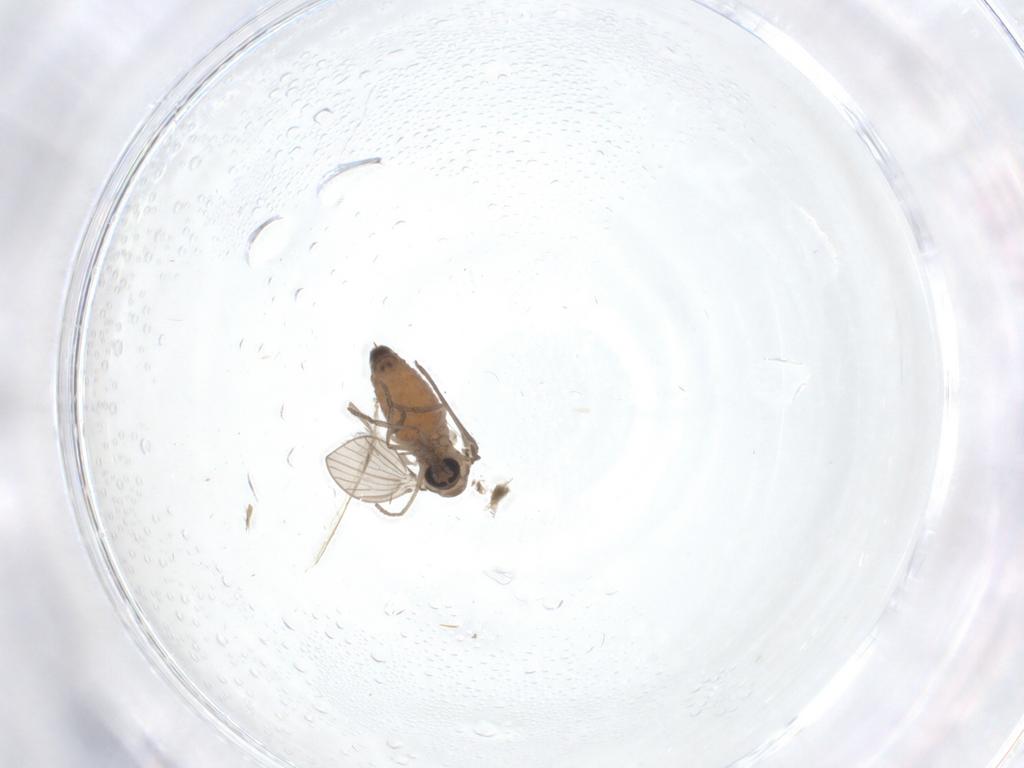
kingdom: Animalia
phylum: Arthropoda
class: Insecta
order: Diptera
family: Psychodidae
